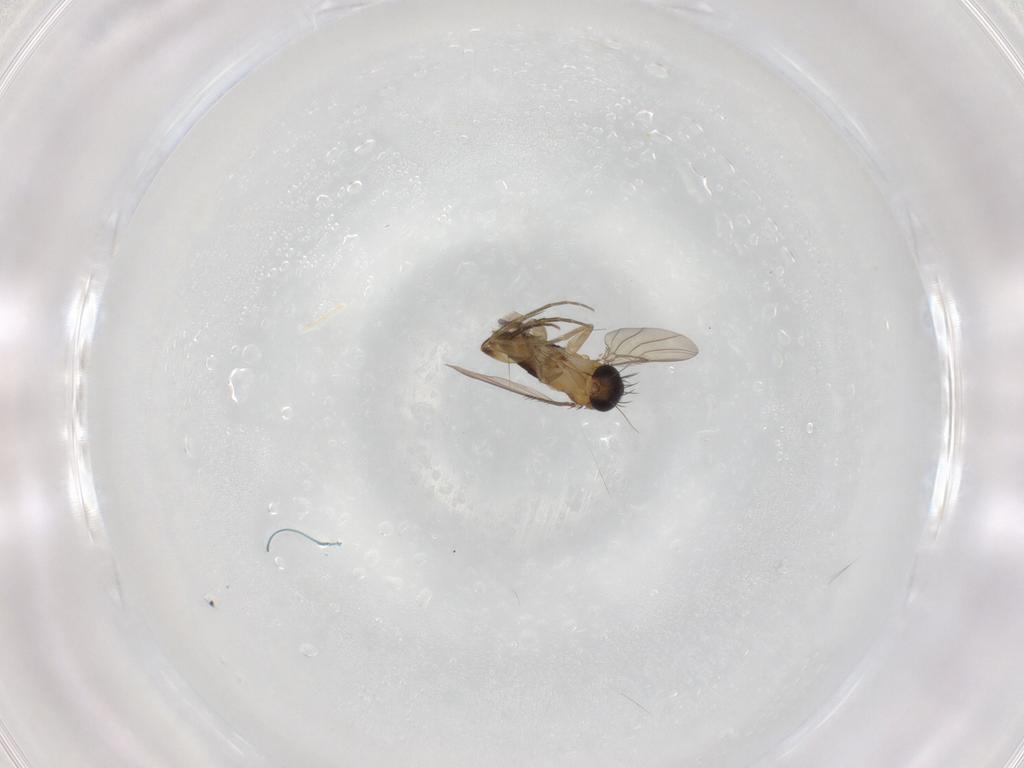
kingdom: Animalia
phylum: Arthropoda
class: Insecta
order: Diptera
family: Phoridae
